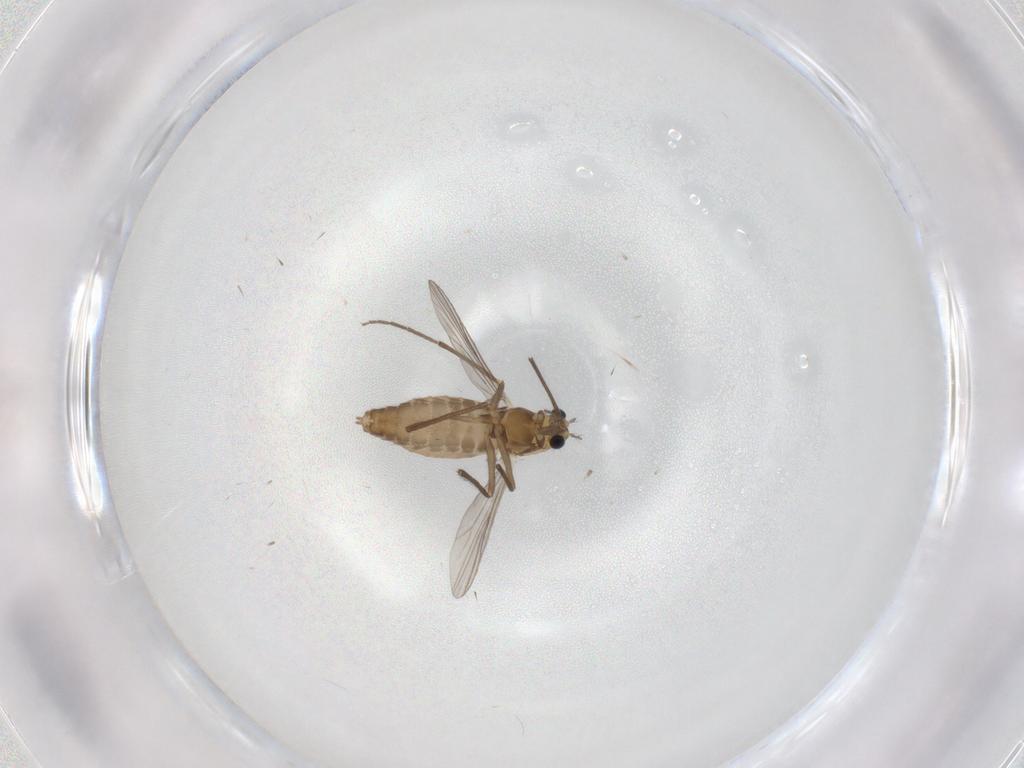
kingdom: Animalia
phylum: Arthropoda
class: Insecta
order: Diptera
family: Chironomidae
